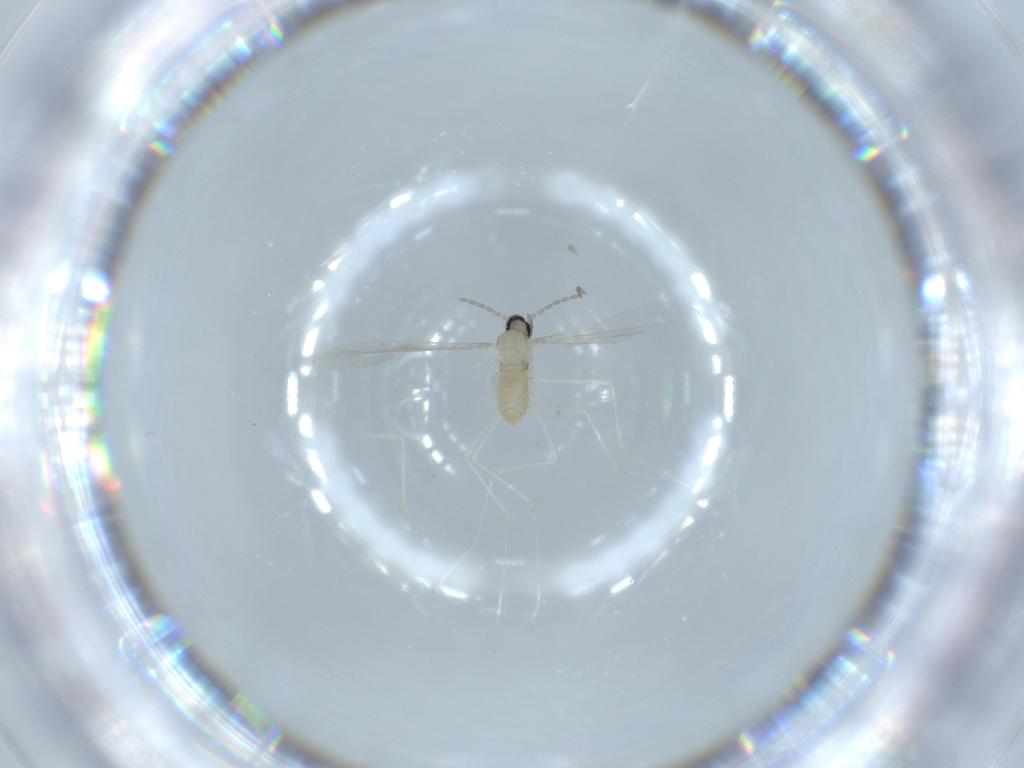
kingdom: Animalia
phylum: Arthropoda
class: Insecta
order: Diptera
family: Cecidomyiidae
